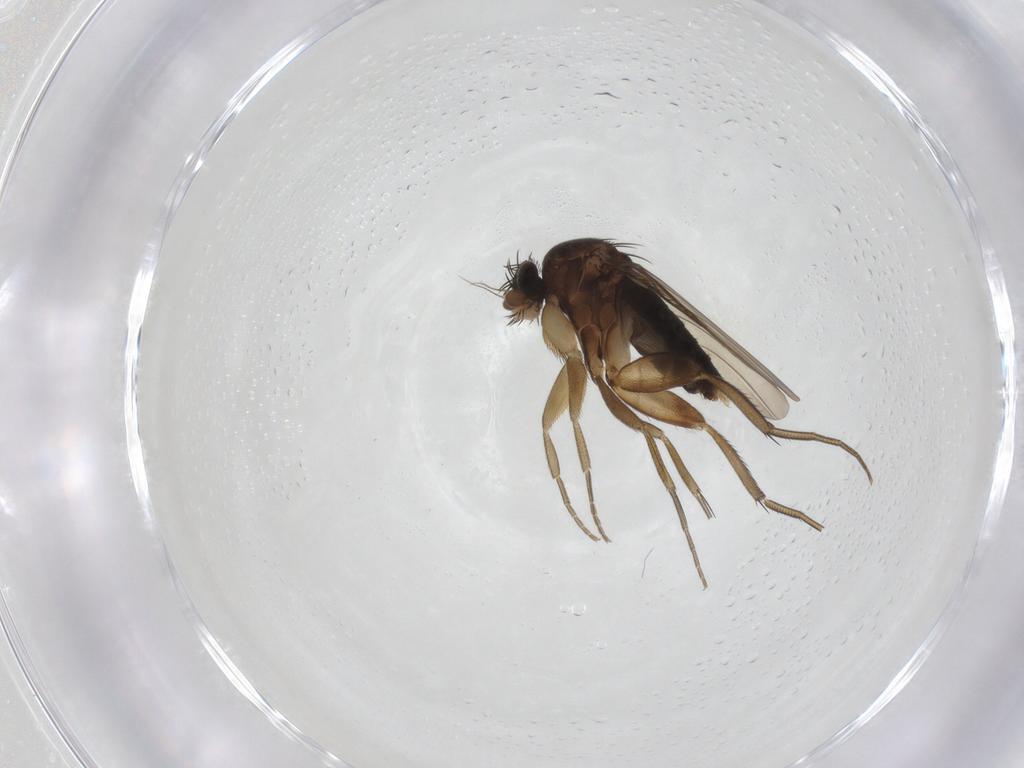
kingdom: Animalia
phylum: Arthropoda
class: Insecta
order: Diptera
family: Phoridae
